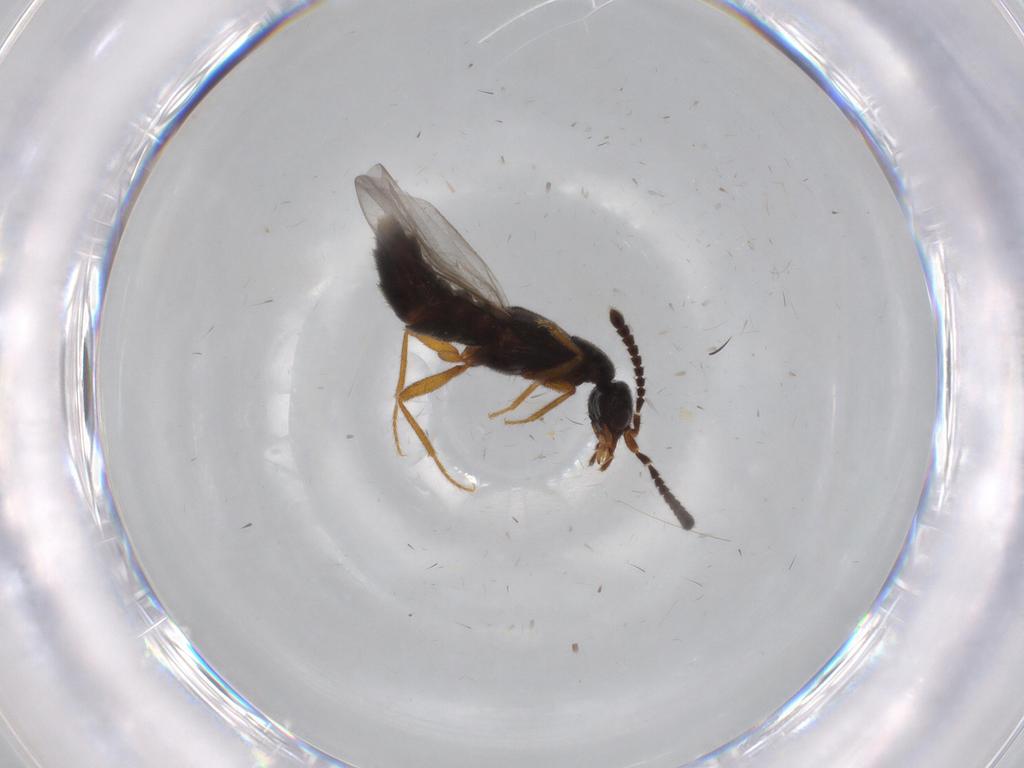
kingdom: Animalia
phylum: Arthropoda
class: Insecta
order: Coleoptera
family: Staphylinidae
